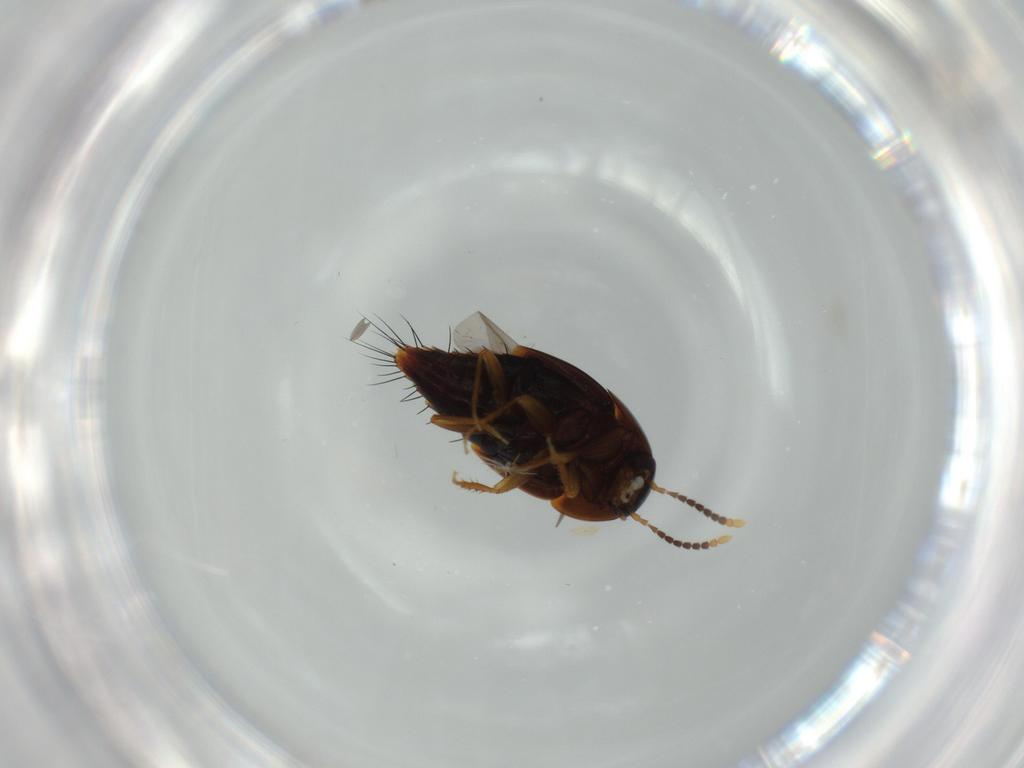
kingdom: Animalia
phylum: Arthropoda
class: Insecta
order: Coleoptera
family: Staphylinidae
